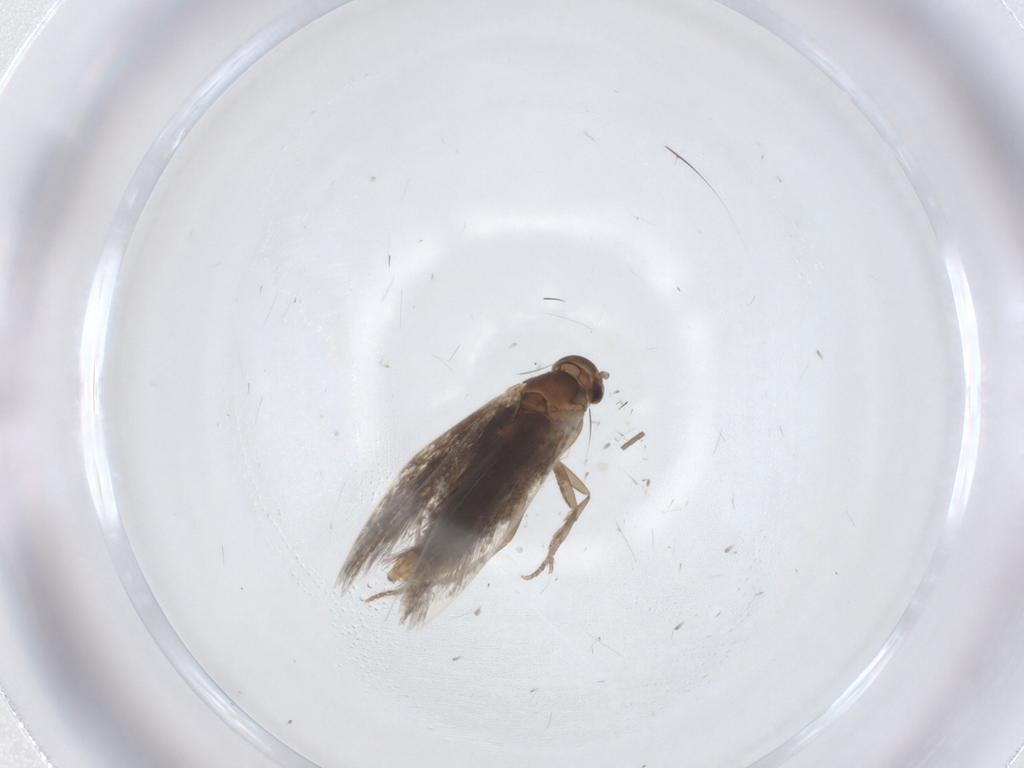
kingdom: Animalia
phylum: Arthropoda
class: Insecta
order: Lepidoptera
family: Elachistidae
